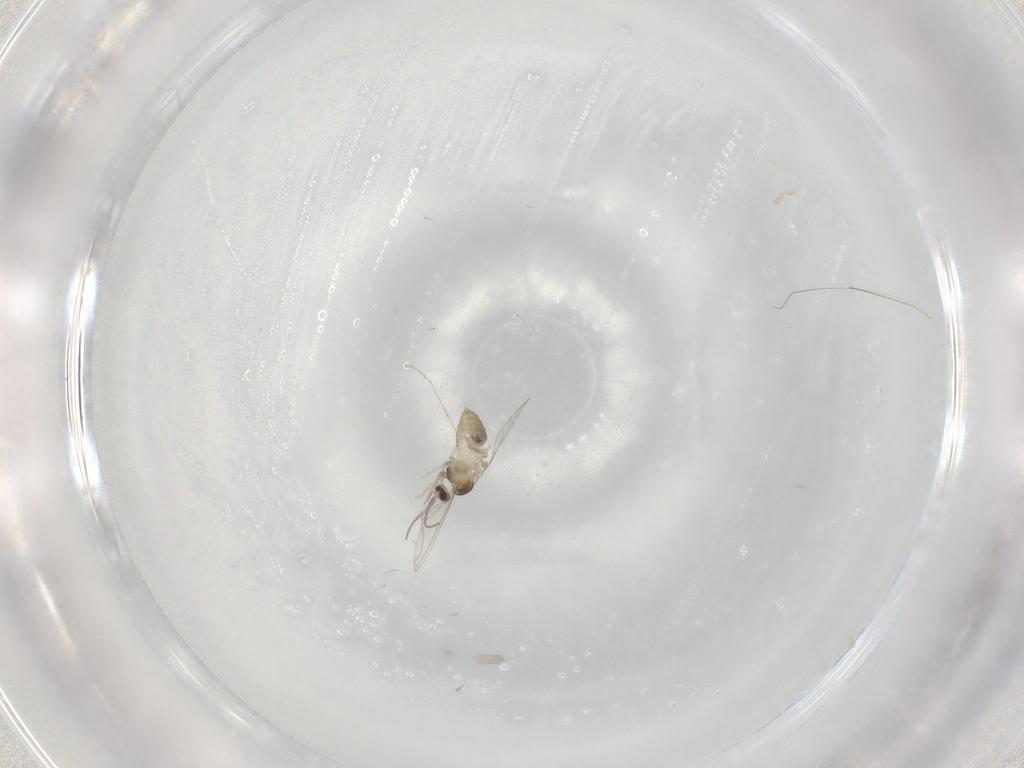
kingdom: Animalia
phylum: Arthropoda
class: Insecta
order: Diptera
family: Cecidomyiidae
